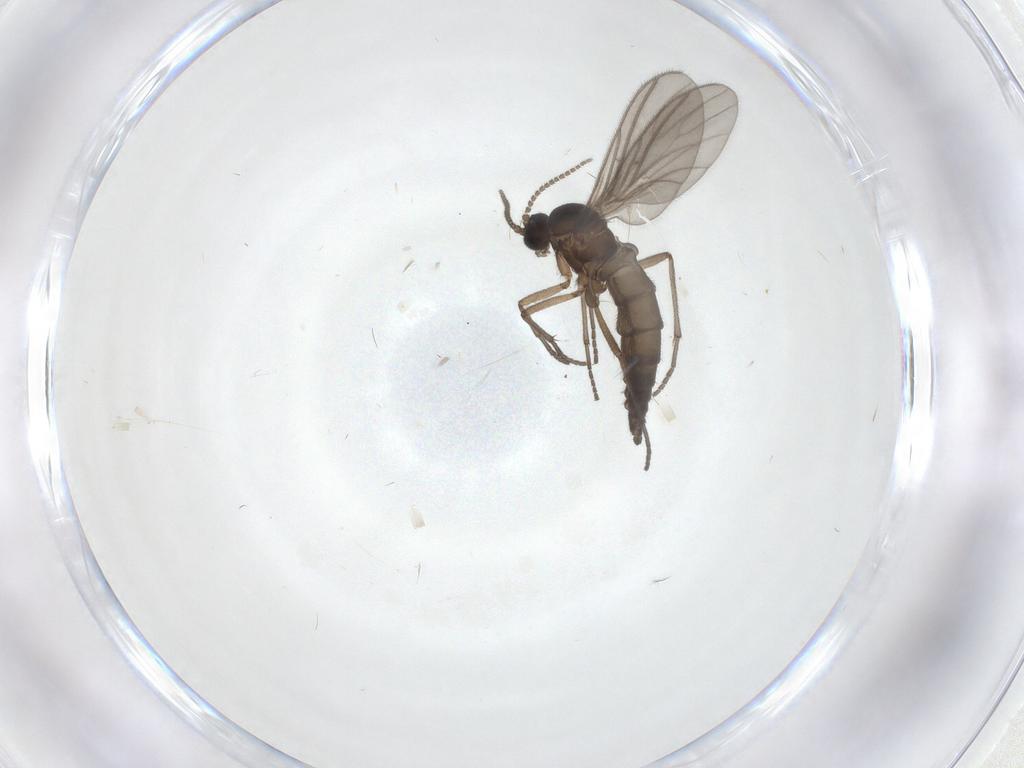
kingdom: Animalia
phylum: Arthropoda
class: Insecta
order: Diptera
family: Sciaridae
